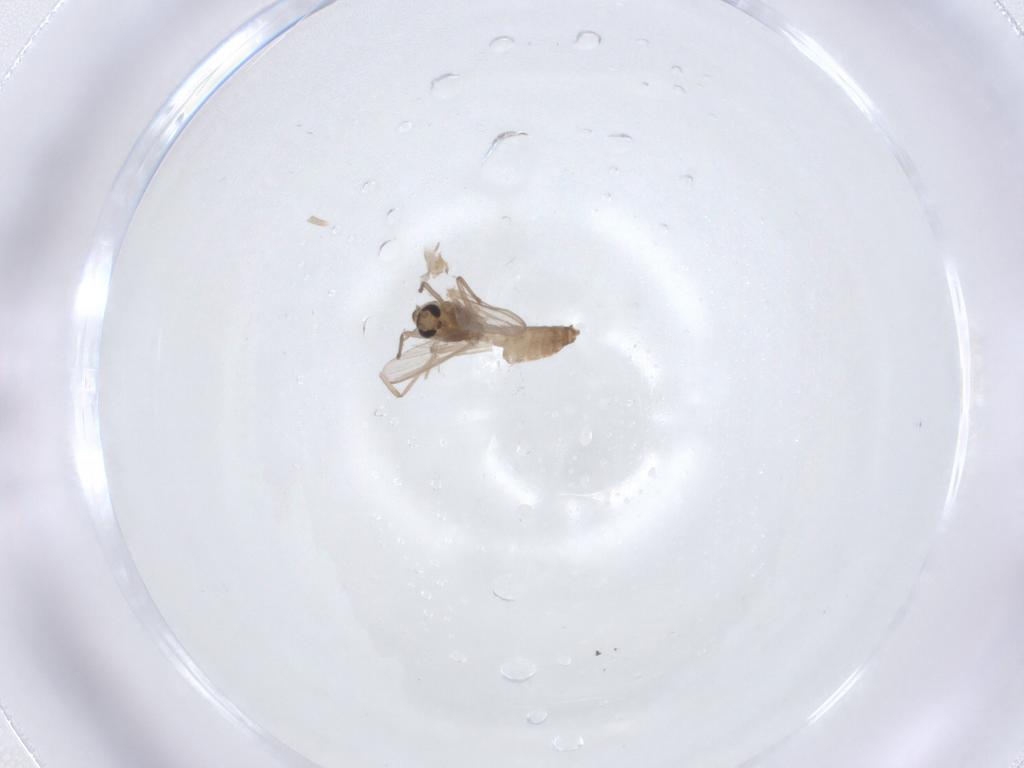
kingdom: Animalia
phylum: Arthropoda
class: Insecta
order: Diptera
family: Chironomidae
